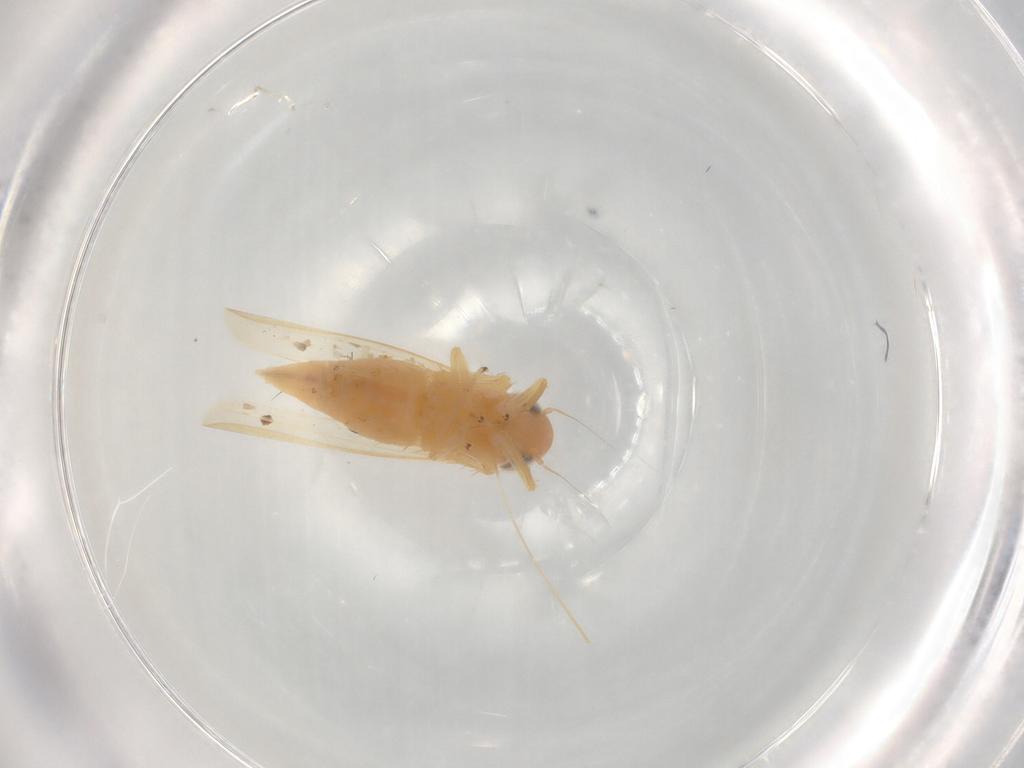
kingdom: Animalia
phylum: Arthropoda
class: Insecta
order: Hemiptera
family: Cicadellidae
